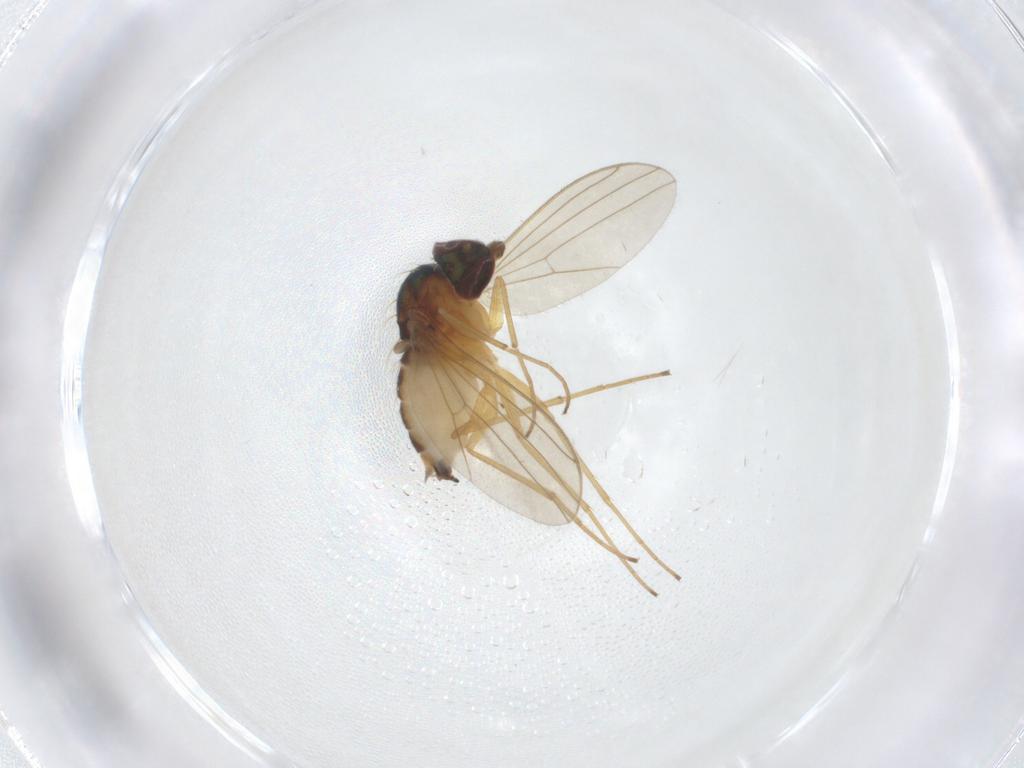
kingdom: Animalia
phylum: Arthropoda
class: Insecta
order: Diptera
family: Dolichopodidae
